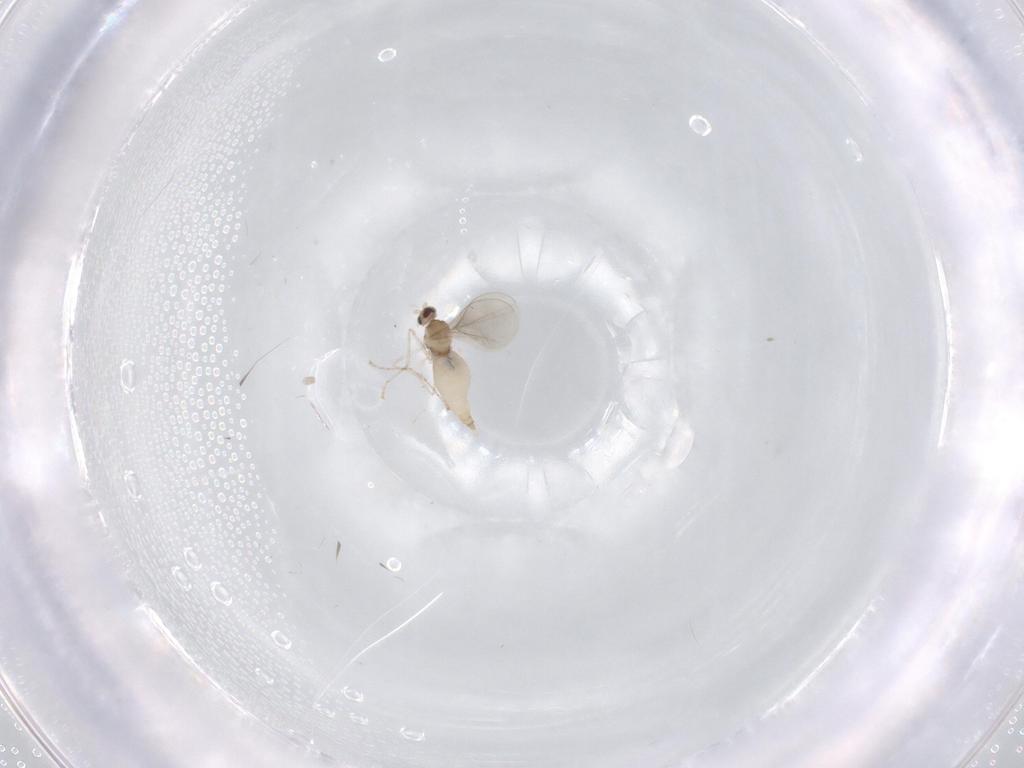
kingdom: Animalia
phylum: Arthropoda
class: Insecta
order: Diptera
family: Cecidomyiidae
